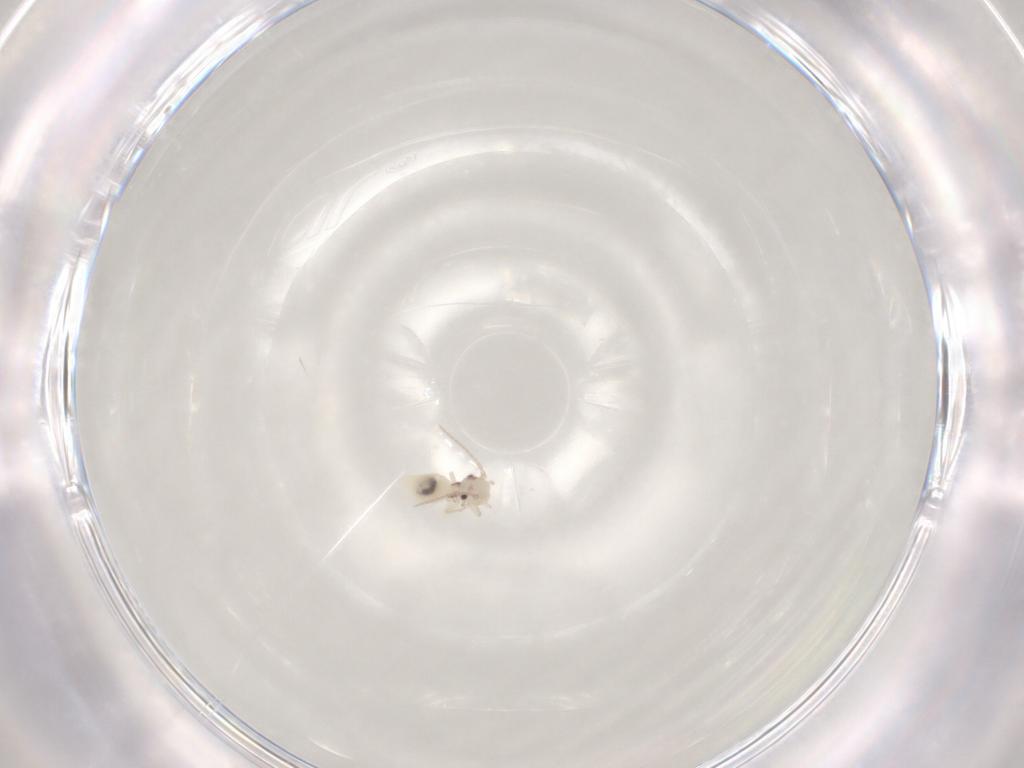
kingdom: Animalia
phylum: Arthropoda
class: Insecta
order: Psocodea
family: Caeciliusidae
